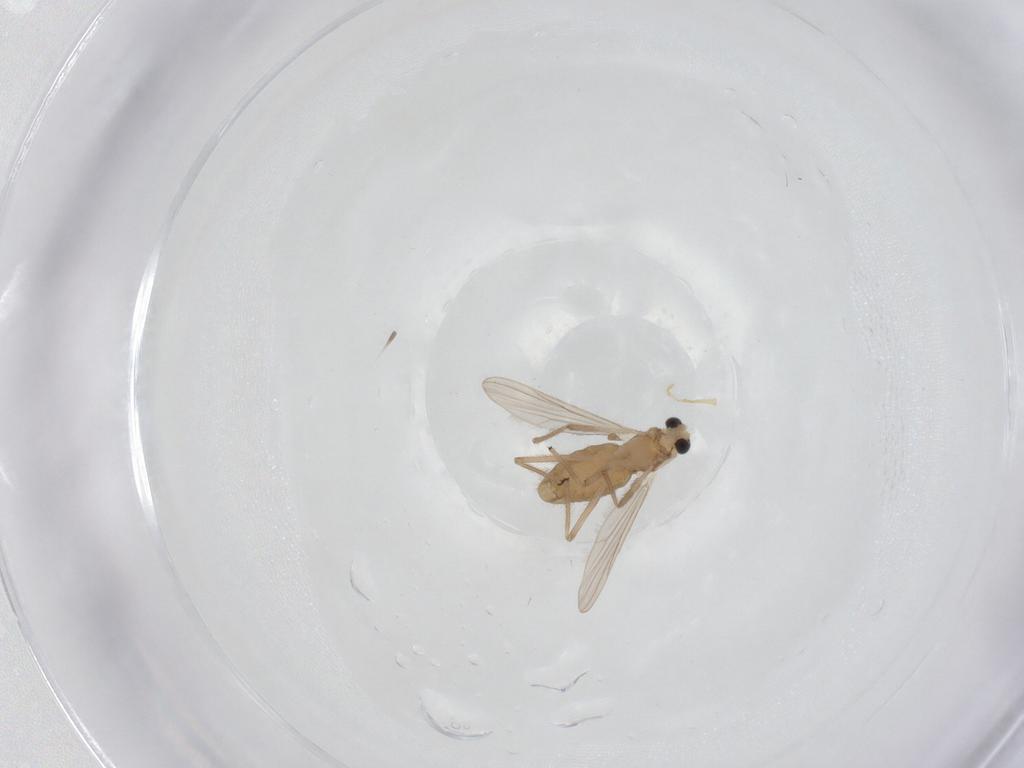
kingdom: Animalia
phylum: Arthropoda
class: Insecta
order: Diptera
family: Chironomidae
